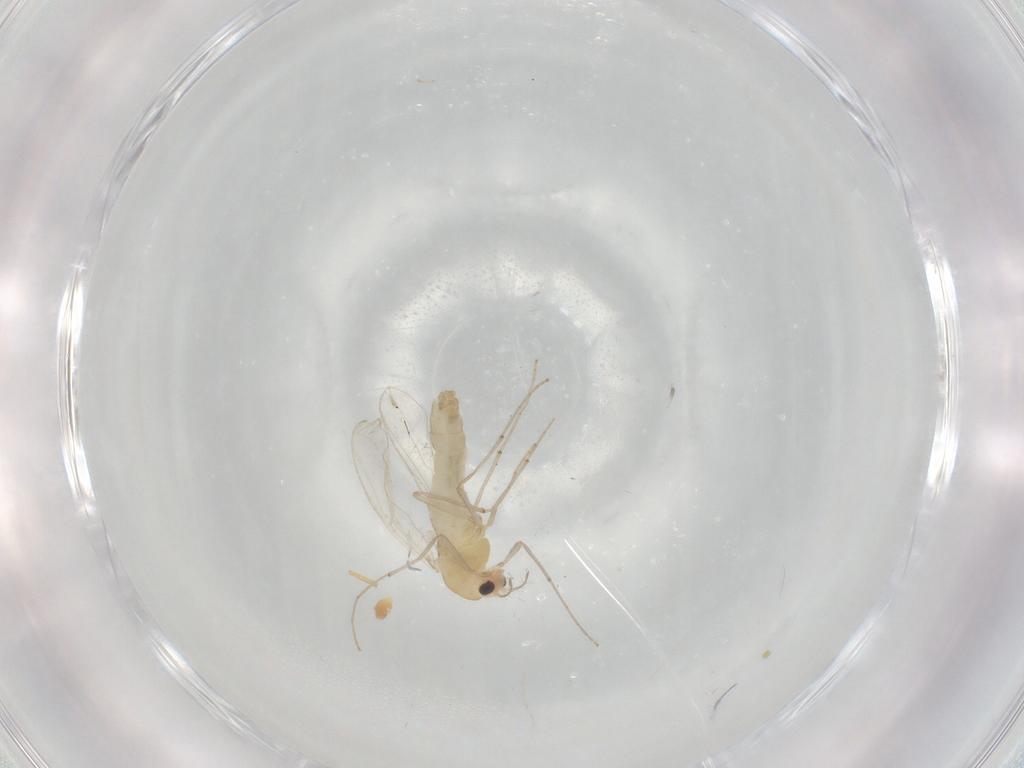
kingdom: Animalia
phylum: Arthropoda
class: Insecta
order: Diptera
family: Chironomidae
